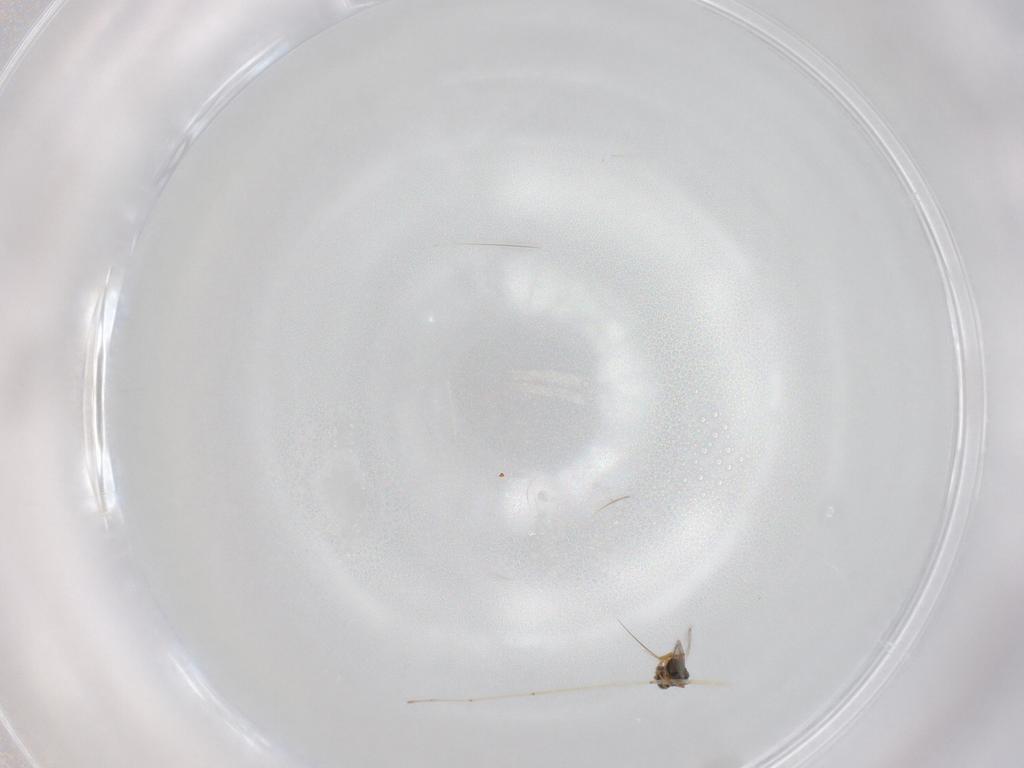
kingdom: Animalia
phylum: Arthropoda
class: Insecta
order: Hymenoptera
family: Platygastridae
